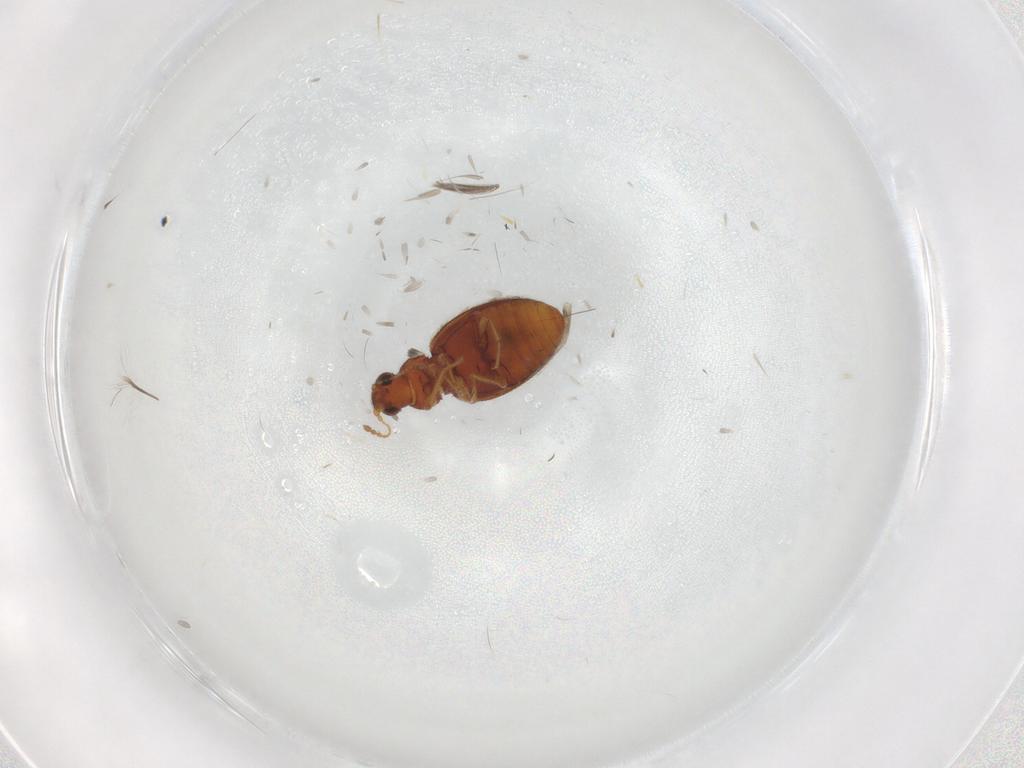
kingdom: Animalia
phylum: Arthropoda
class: Insecta
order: Coleoptera
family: Latridiidae
